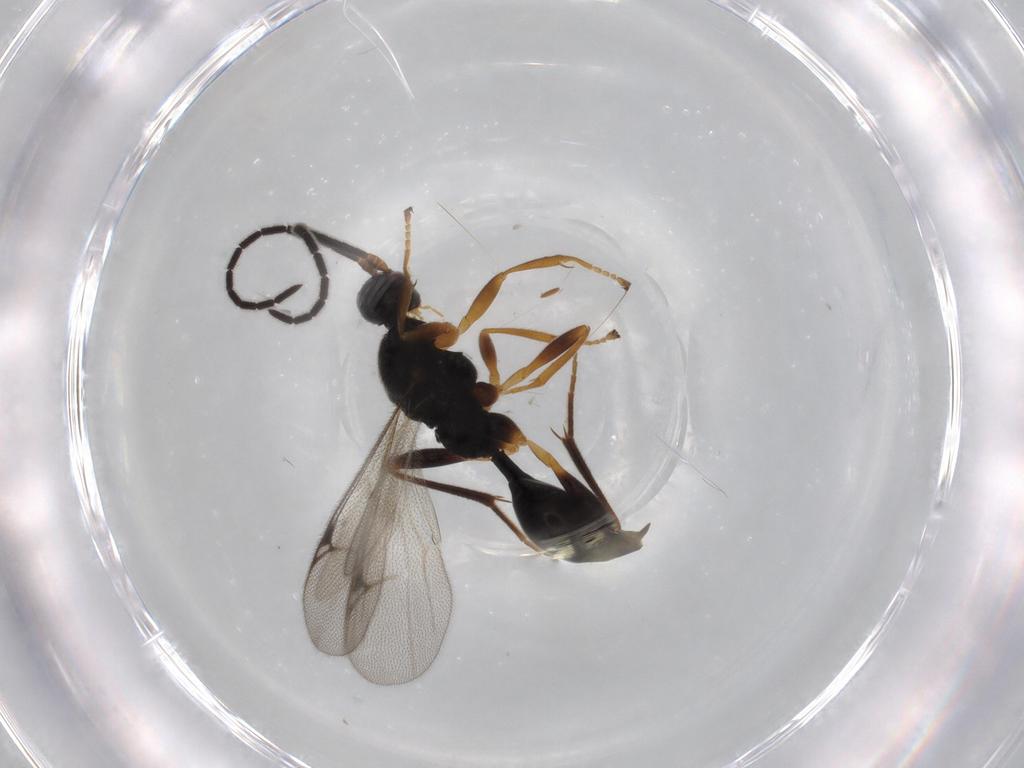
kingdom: Animalia
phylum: Arthropoda
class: Insecta
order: Hymenoptera
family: Proctotrupidae
